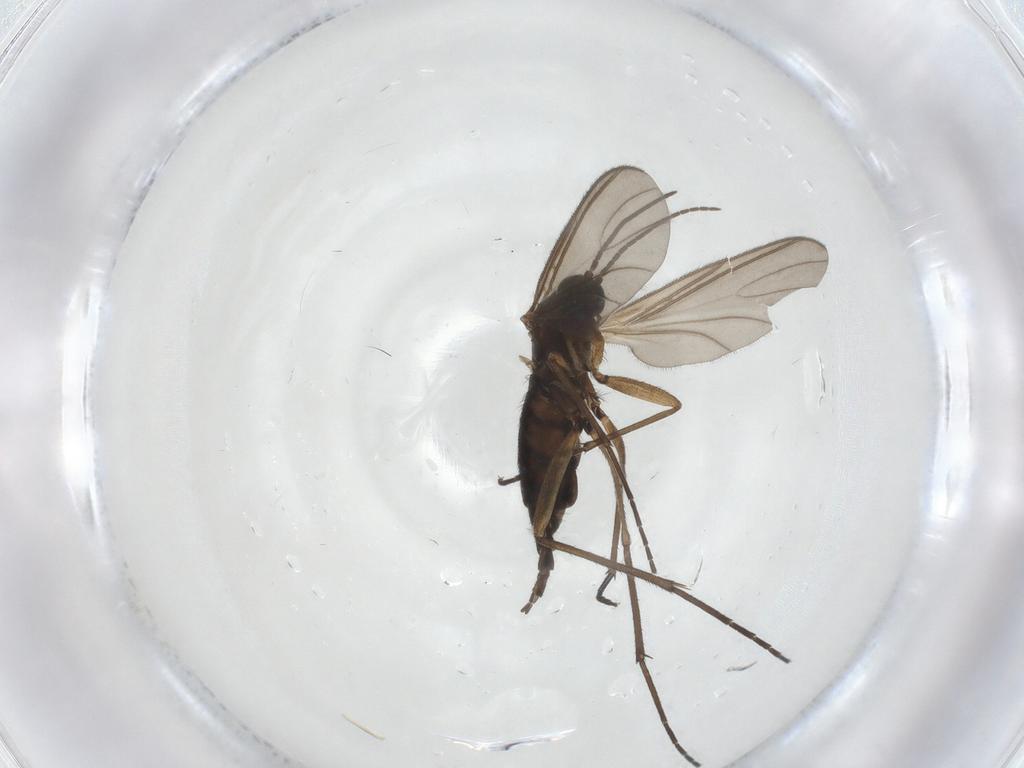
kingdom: Animalia
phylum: Arthropoda
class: Insecta
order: Diptera
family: Sciaridae
